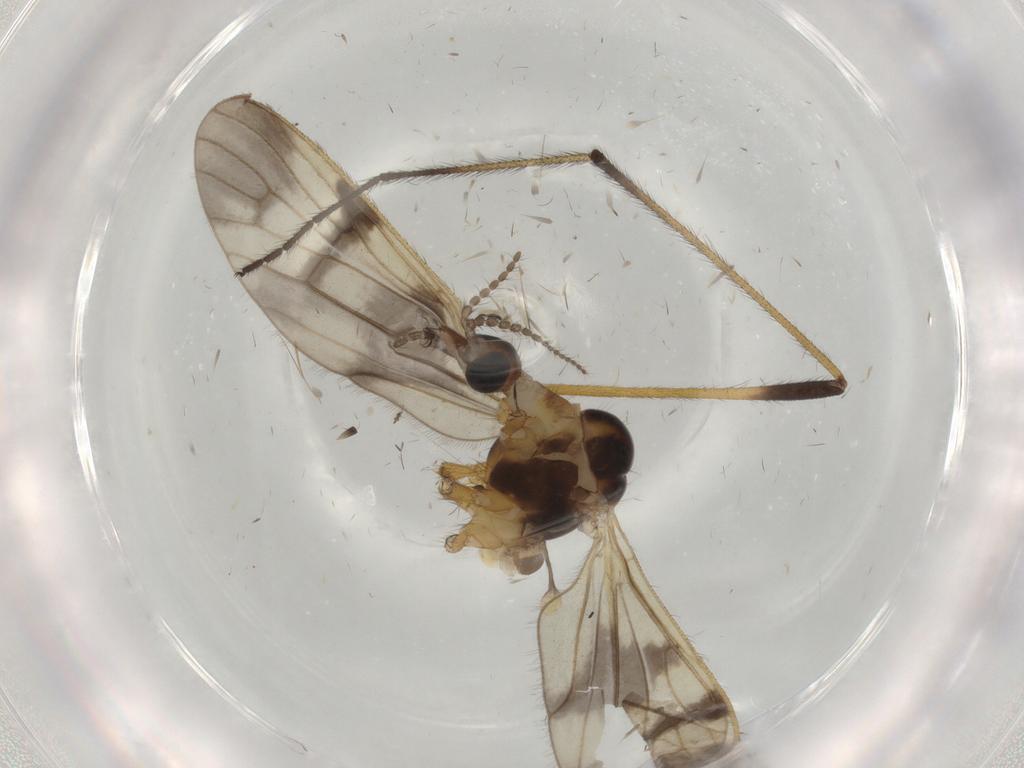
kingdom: Animalia
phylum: Arthropoda
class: Insecta
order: Diptera
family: Limoniidae
